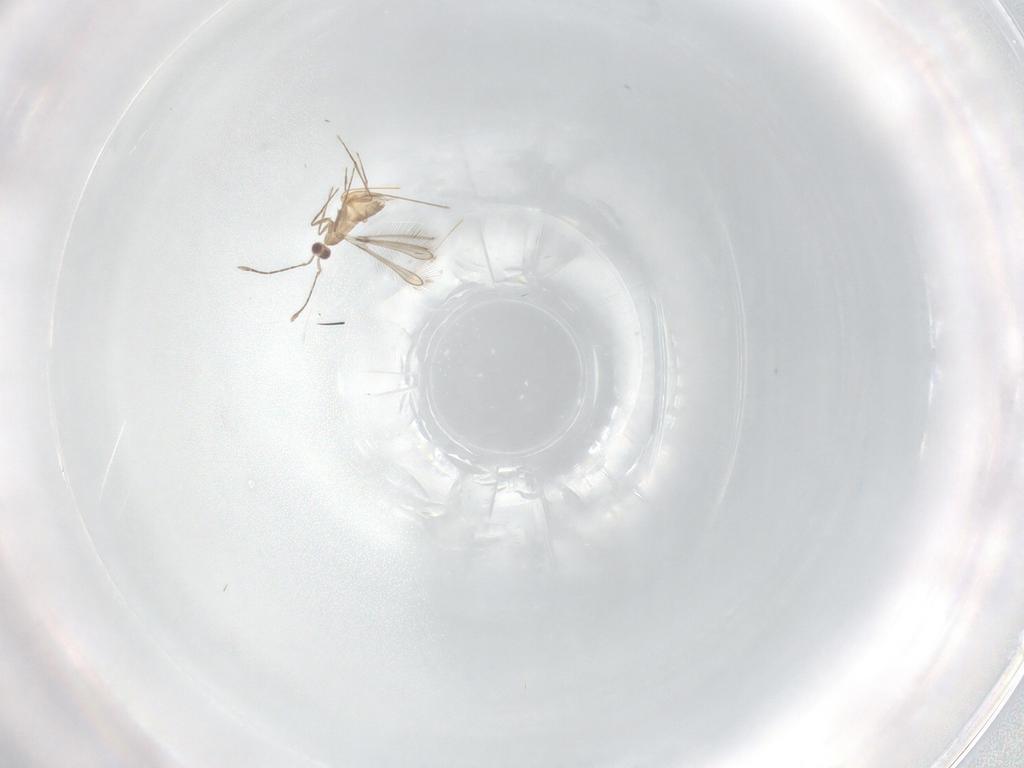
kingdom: Animalia
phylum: Arthropoda
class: Insecta
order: Hymenoptera
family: Mymaridae
